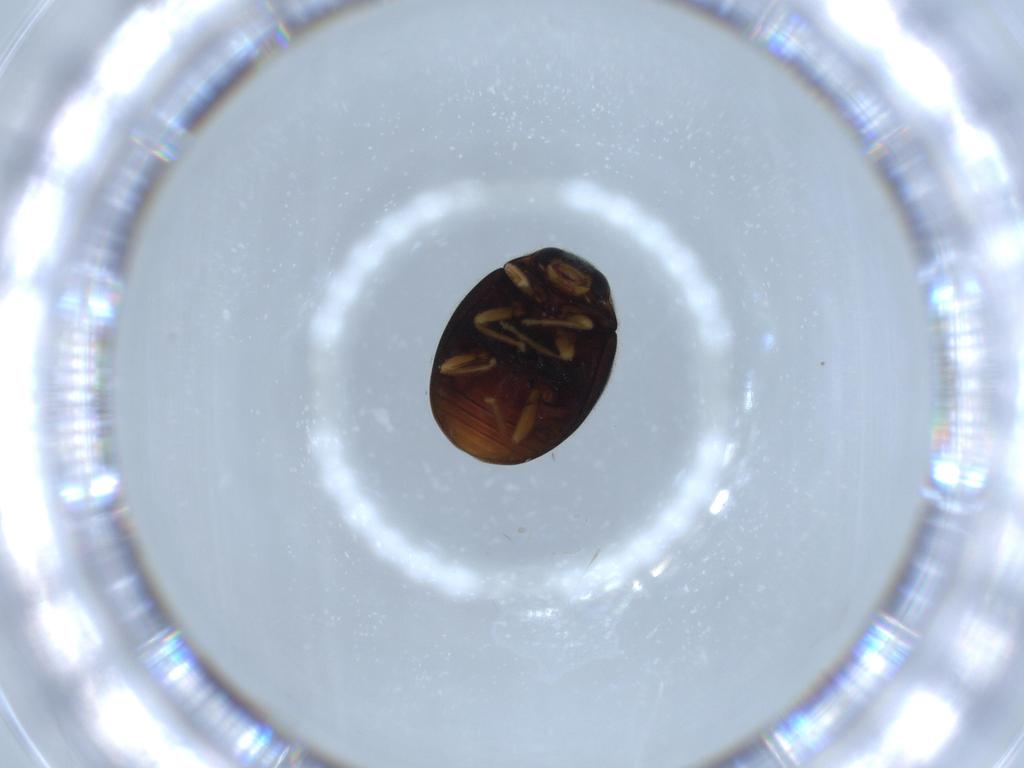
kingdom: Animalia
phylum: Arthropoda
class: Insecta
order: Coleoptera
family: Coccinellidae
